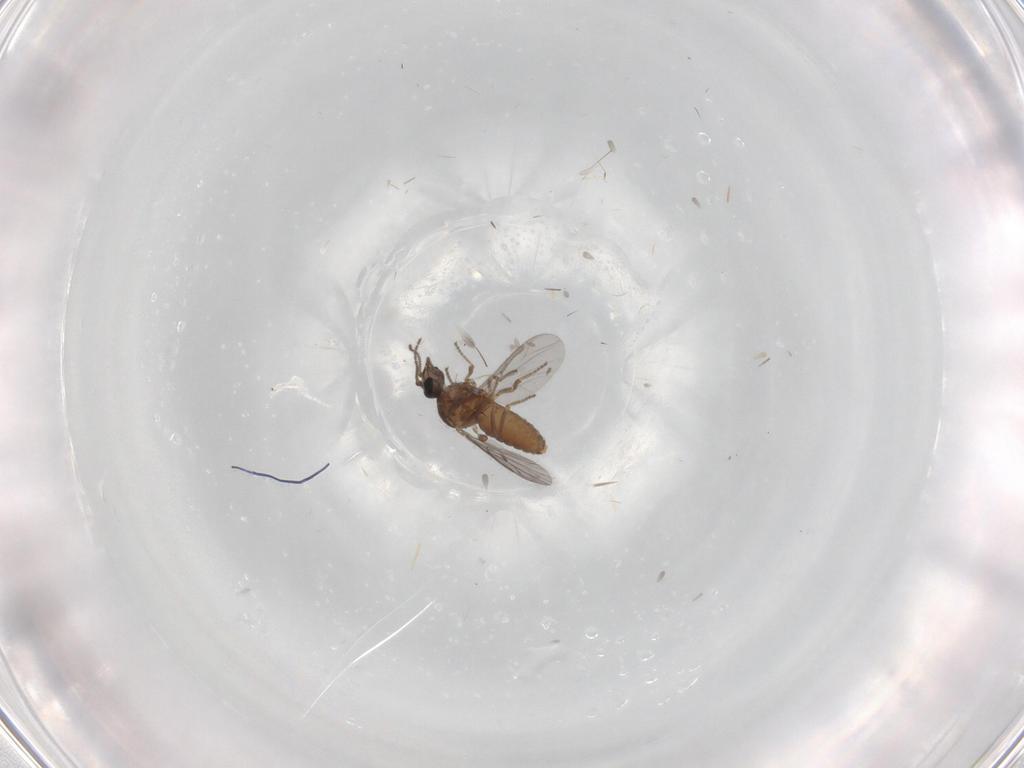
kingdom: Animalia
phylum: Arthropoda
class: Insecta
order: Diptera
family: Ceratopogonidae
